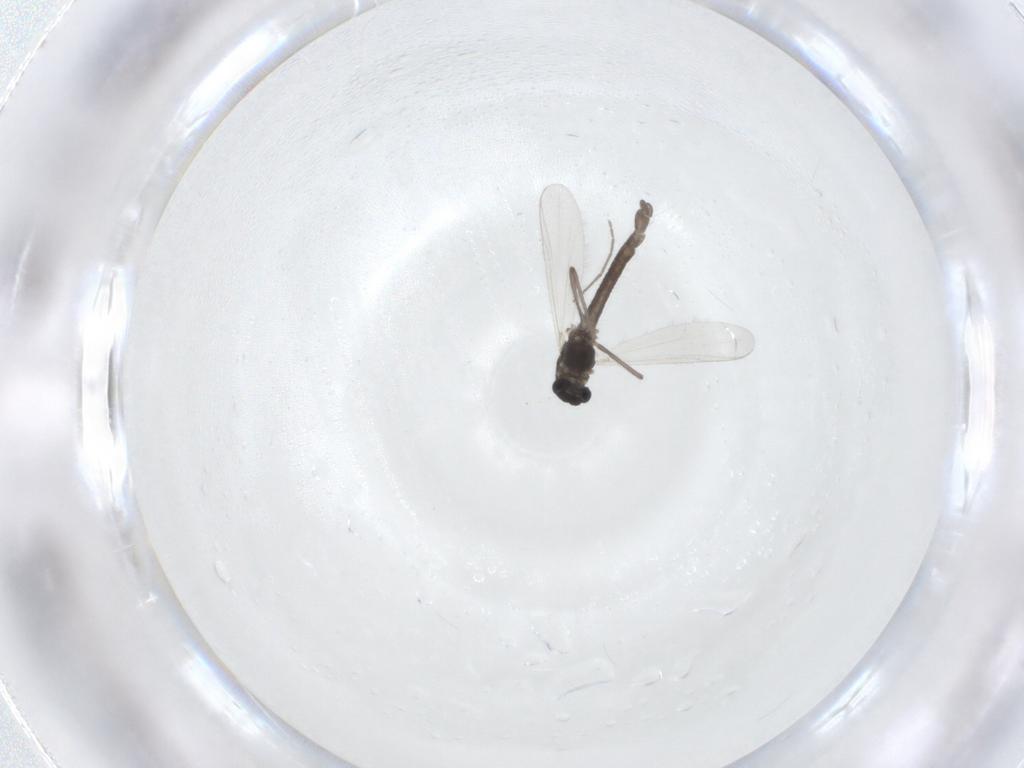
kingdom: Animalia
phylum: Arthropoda
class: Insecta
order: Diptera
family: Chironomidae
